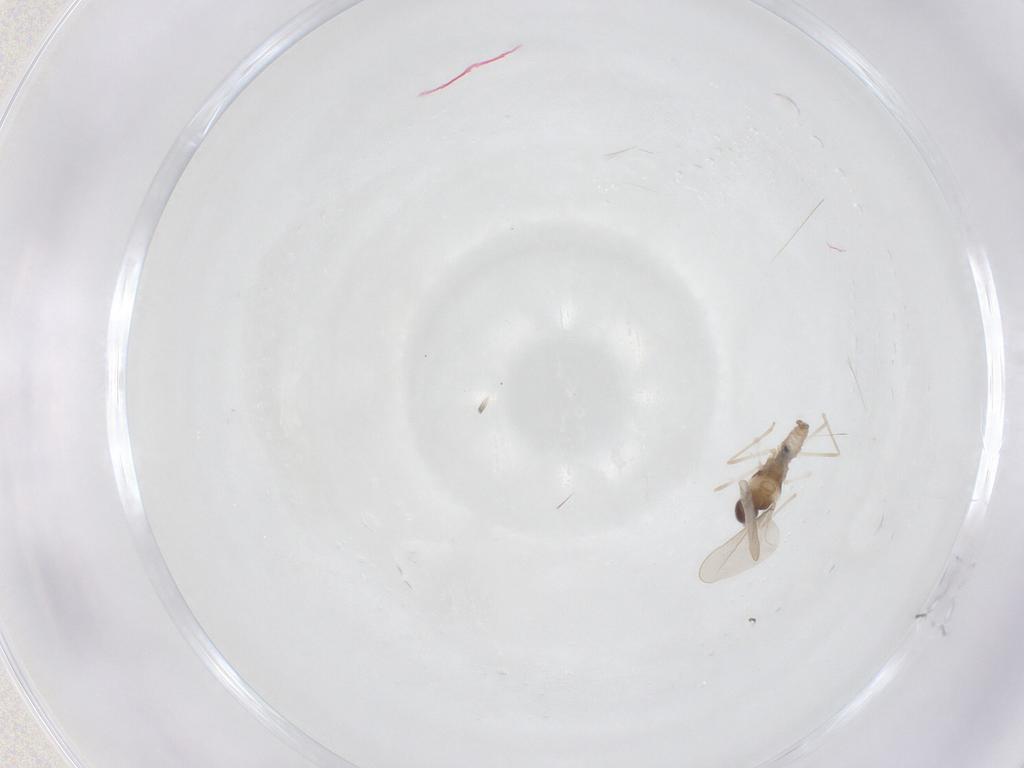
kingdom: Animalia
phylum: Arthropoda
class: Insecta
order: Diptera
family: Cecidomyiidae
